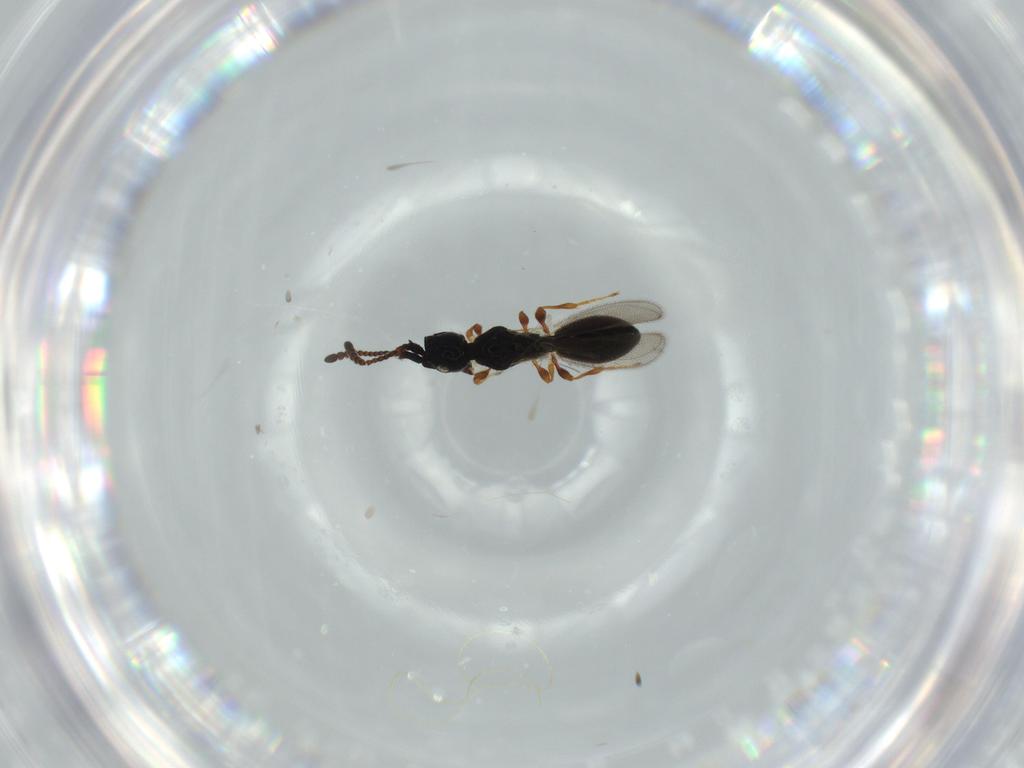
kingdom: Animalia
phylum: Arthropoda
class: Insecta
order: Hymenoptera
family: Diapriidae
